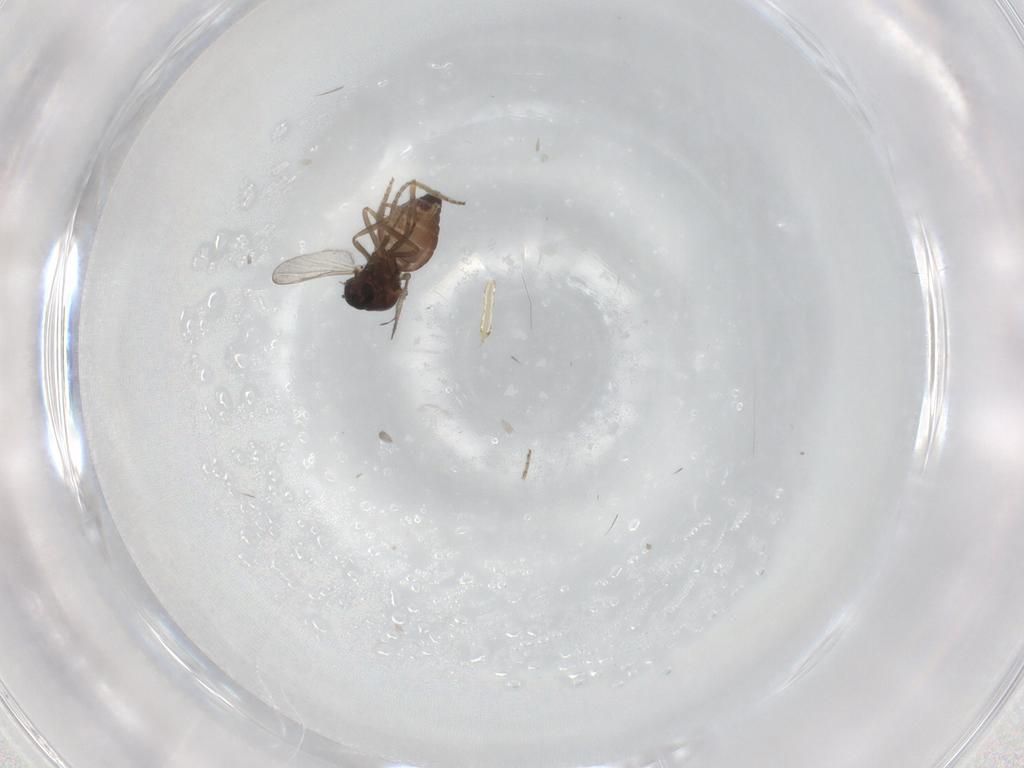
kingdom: Animalia
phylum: Arthropoda
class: Insecta
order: Diptera
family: Ceratopogonidae
